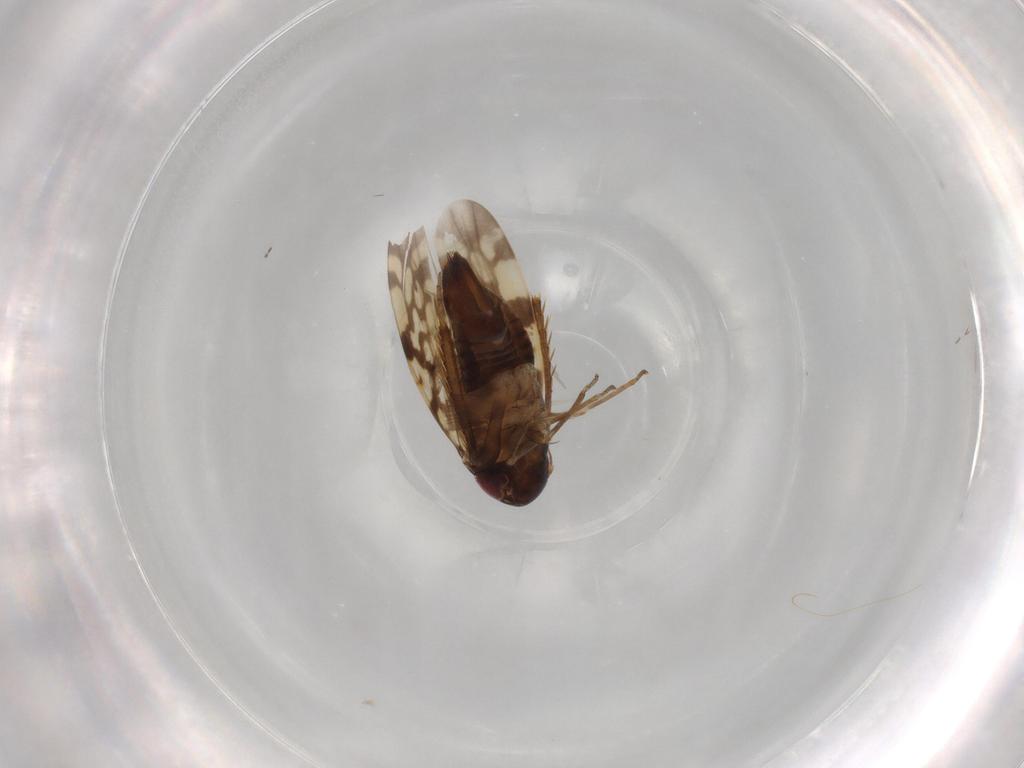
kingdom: Animalia
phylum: Arthropoda
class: Insecta
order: Hemiptera
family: Cicadellidae
